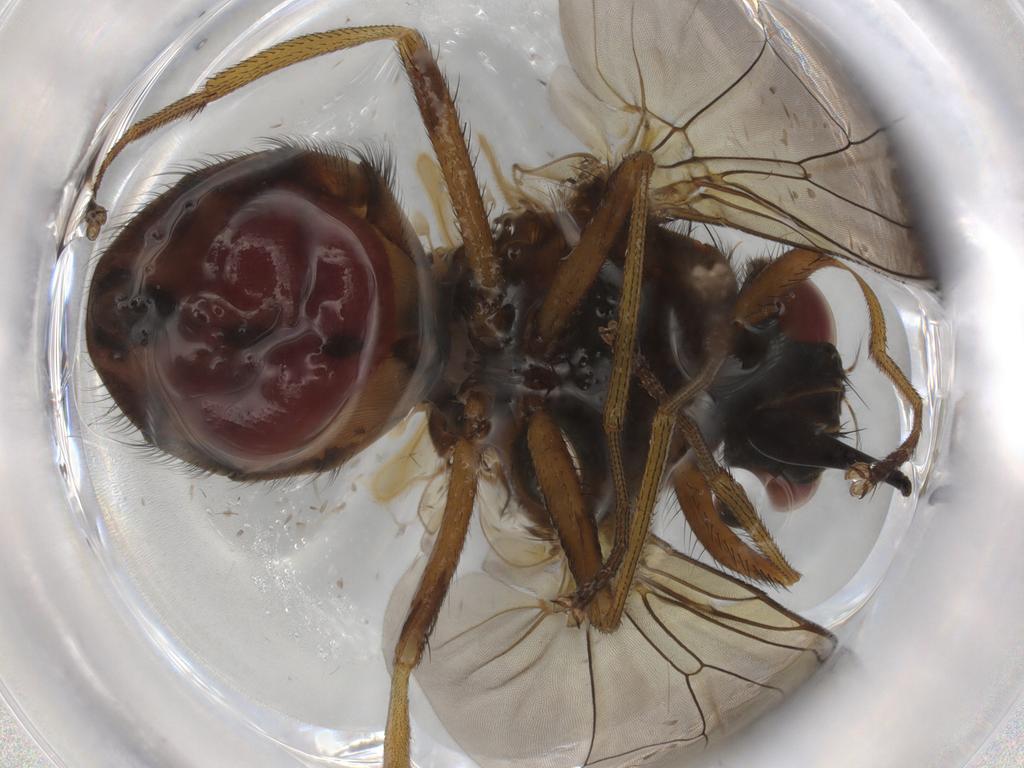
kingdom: Animalia
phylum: Arthropoda
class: Insecta
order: Diptera
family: Muscidae
